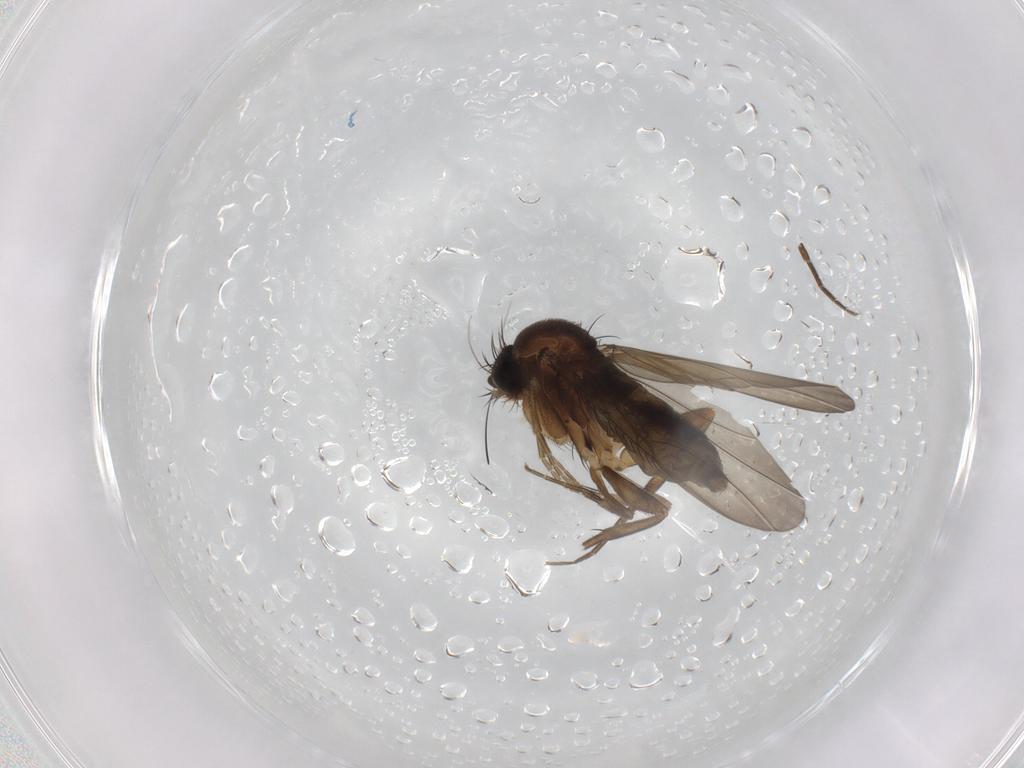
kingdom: Animalia
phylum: Arthropoda
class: Insecta
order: Diptera
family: Phoridae
